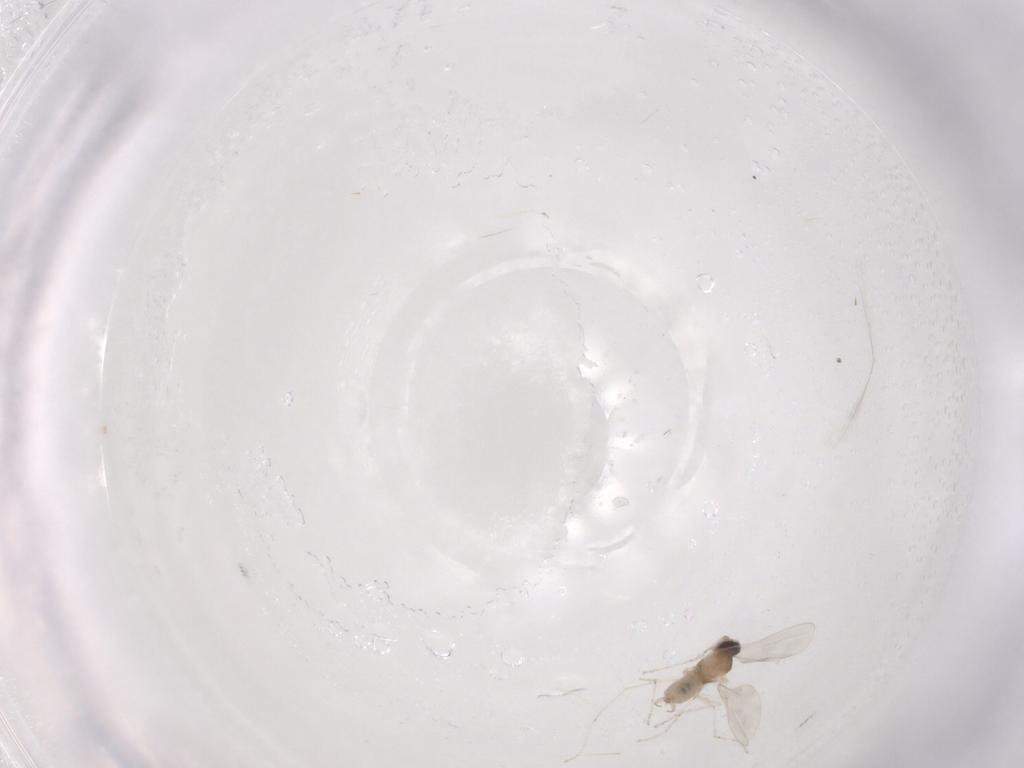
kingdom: Animalia
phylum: Arthropoda
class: Insecta
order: Diptera
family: Cecidomyiidae
